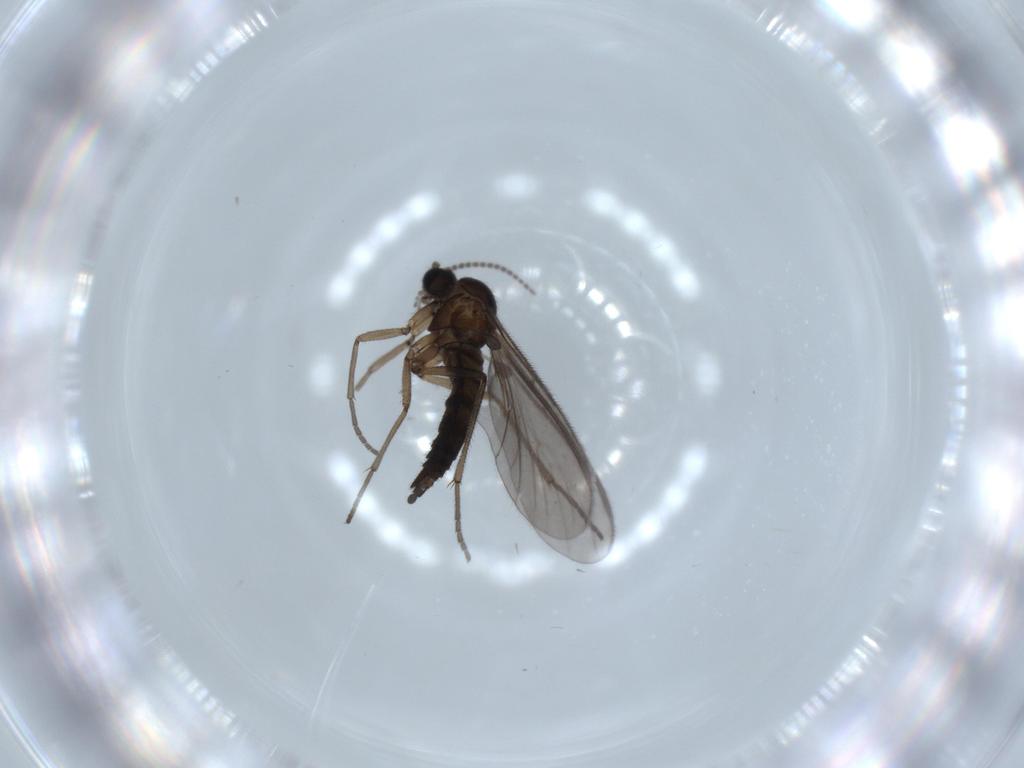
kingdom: Animalia
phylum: Arthropoda
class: Insecta
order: Diptera
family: Sciaridae
